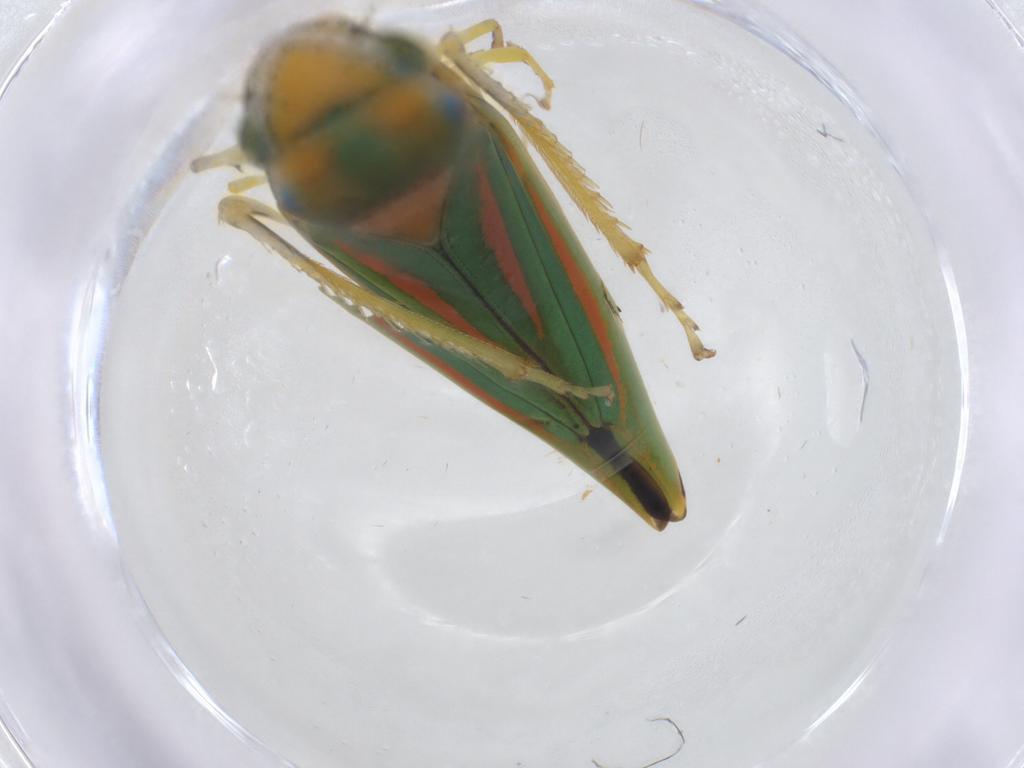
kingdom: Animalia
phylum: Arthropoda
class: Insecta
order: Hemiptera
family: Cicadellidae
